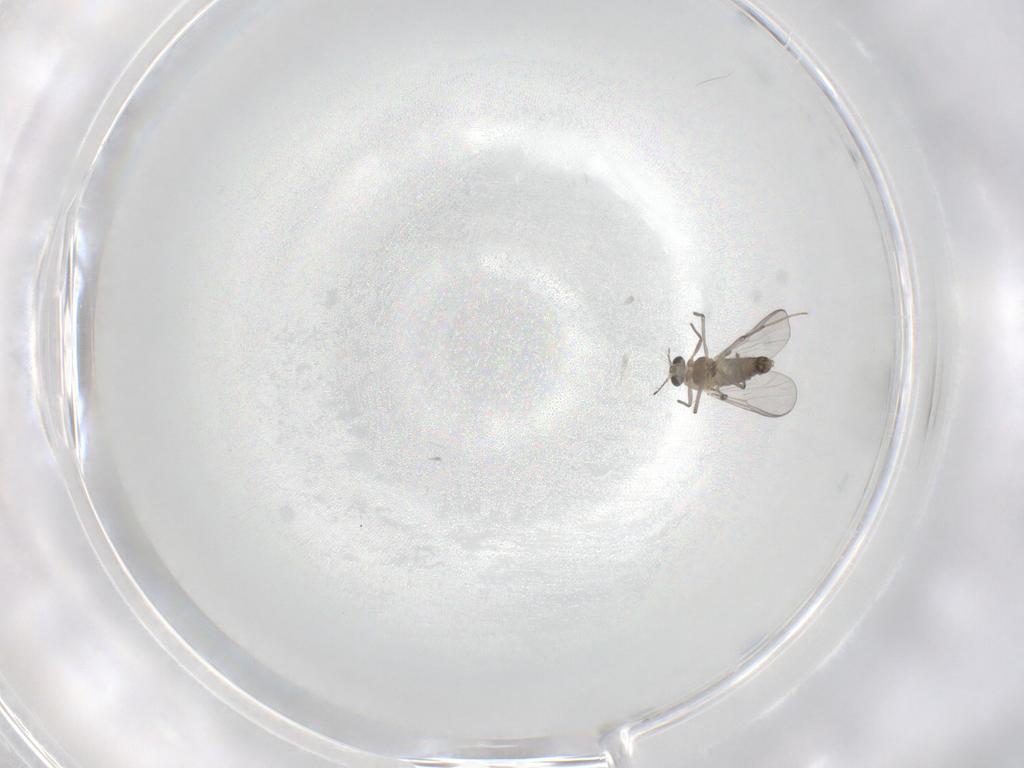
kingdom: Animalia
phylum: Arthropoda
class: Insecta
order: Diptera
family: Chironomidae
